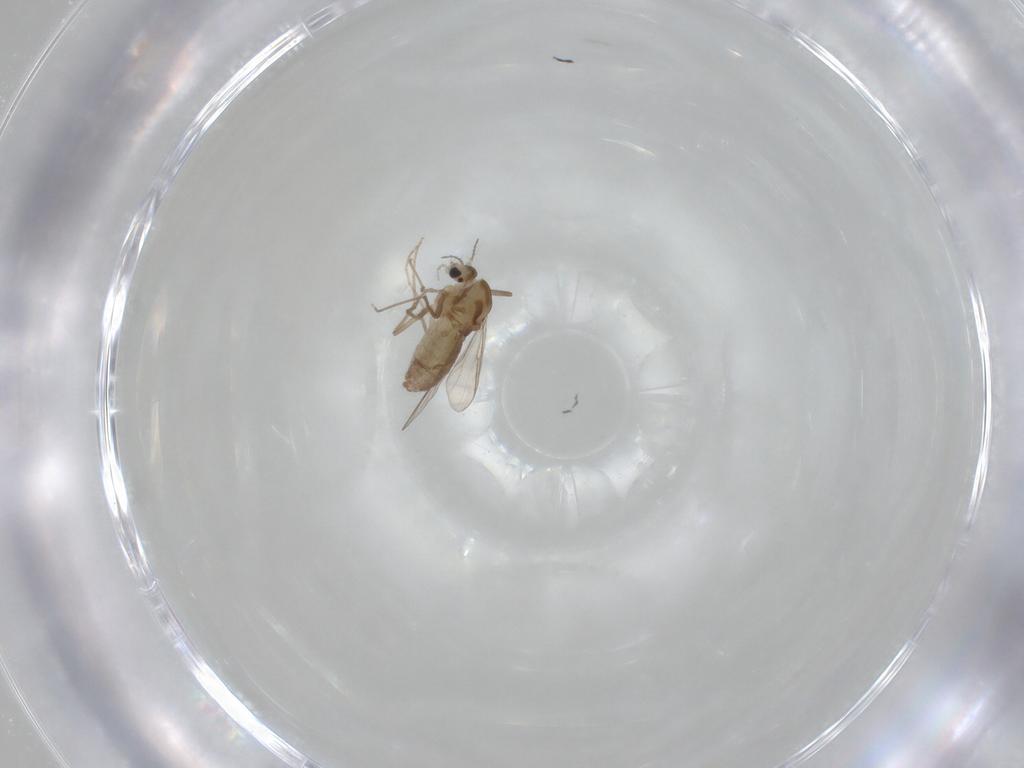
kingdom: Animalia
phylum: Arthropoda
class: Insecta
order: Diptera
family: Chironomidae
